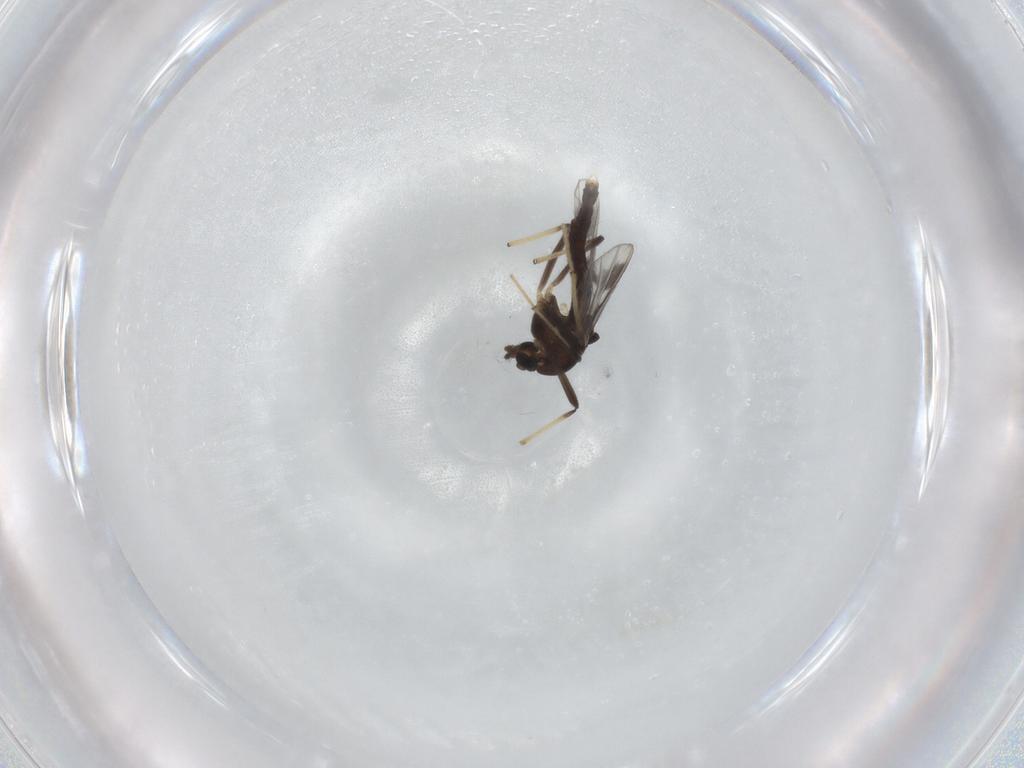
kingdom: Animalia
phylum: Arthropoda
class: Insecta
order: Diptera
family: Chironomidae
